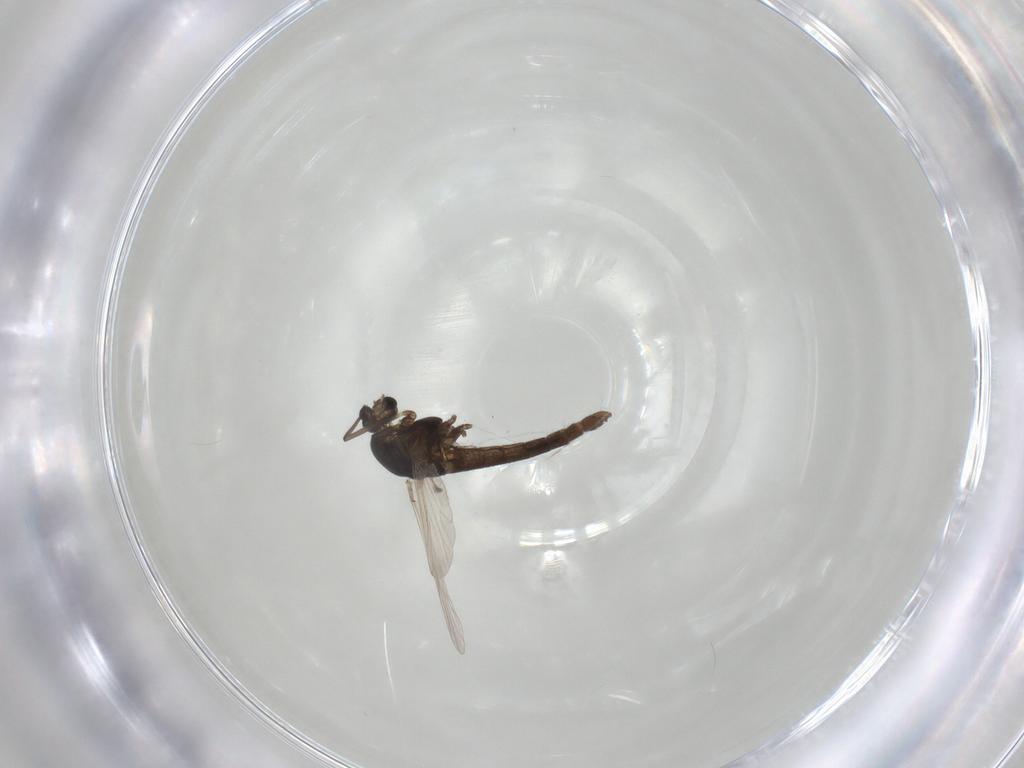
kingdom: Animalia
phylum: Arthropoda
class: Insecta
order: Diptera
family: Chironomidae
